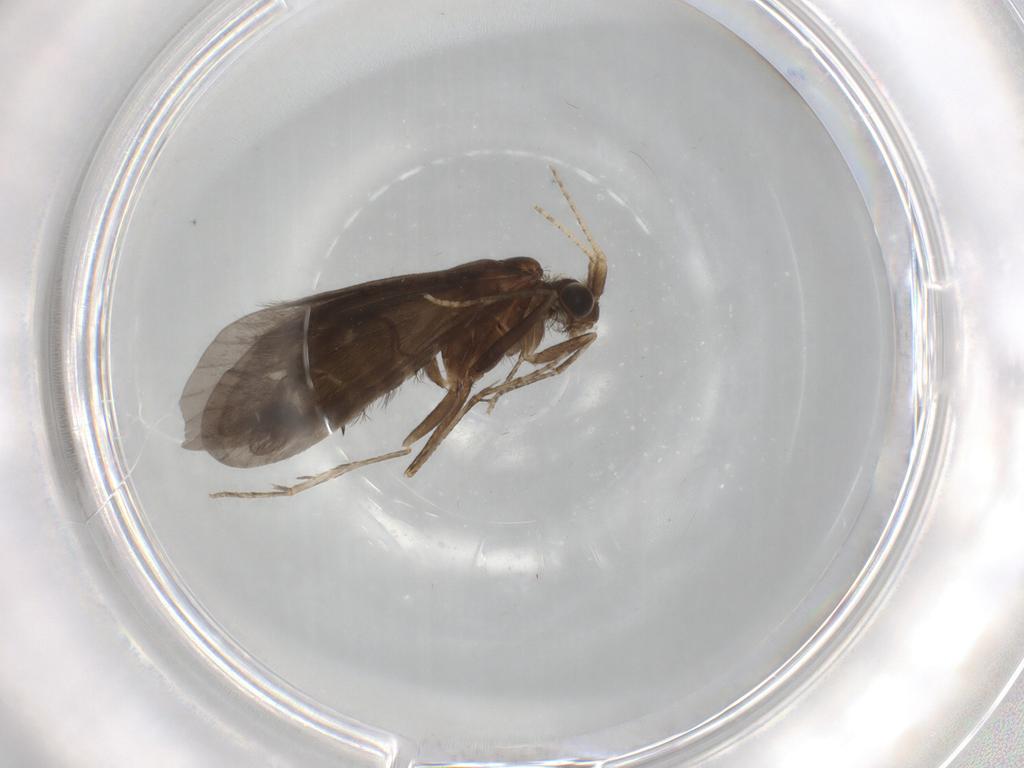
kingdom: Animalia
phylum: Arthropoda
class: Insecta
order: Trichoptera
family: Helicopsychidae
